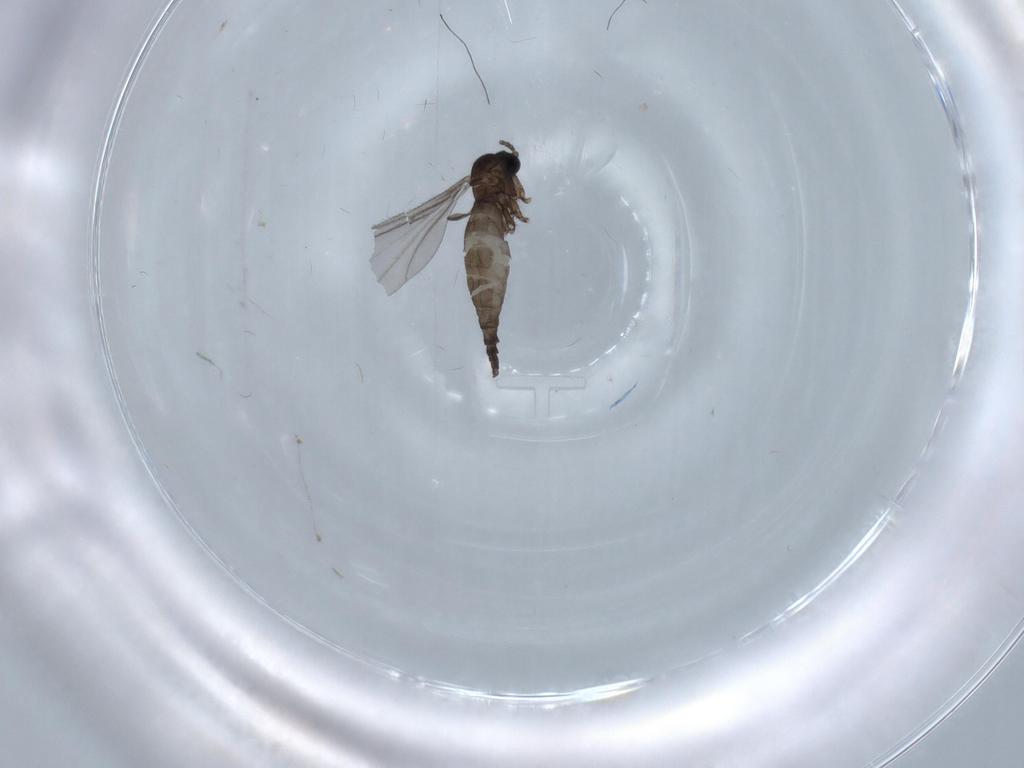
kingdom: Animalia
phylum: Arthropoda
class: Insecta
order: Diptera
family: Sciaridae
